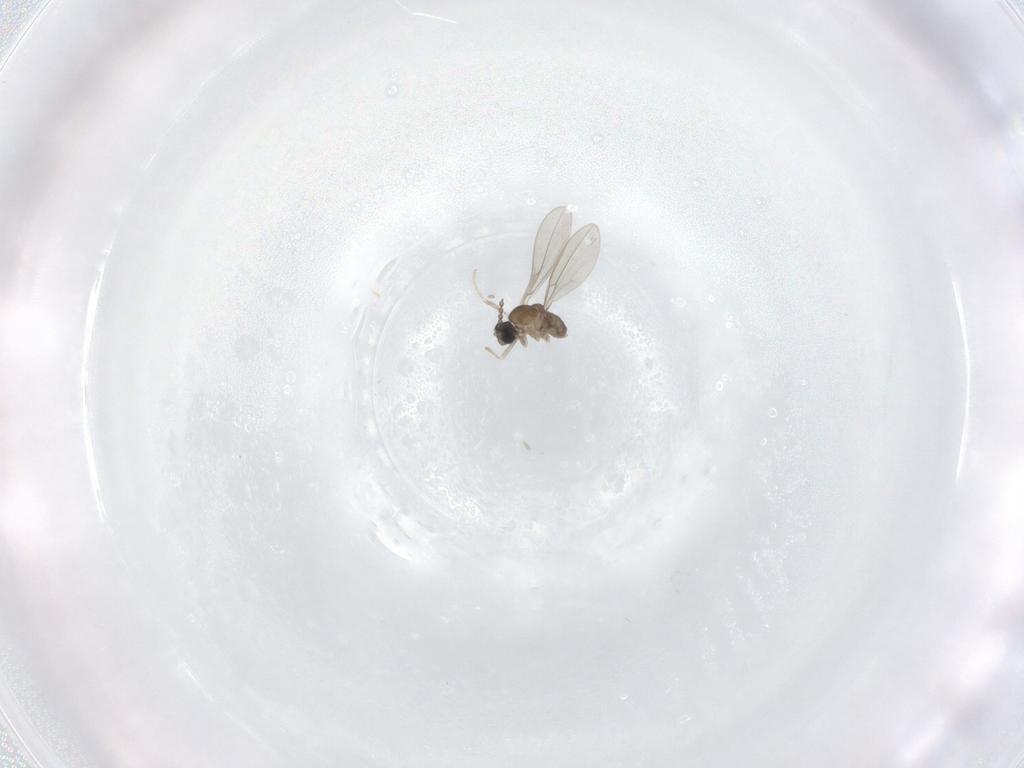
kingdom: Animalia
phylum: Arthropoda
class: Insecta
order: Diptera
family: Cecidomyiidae
